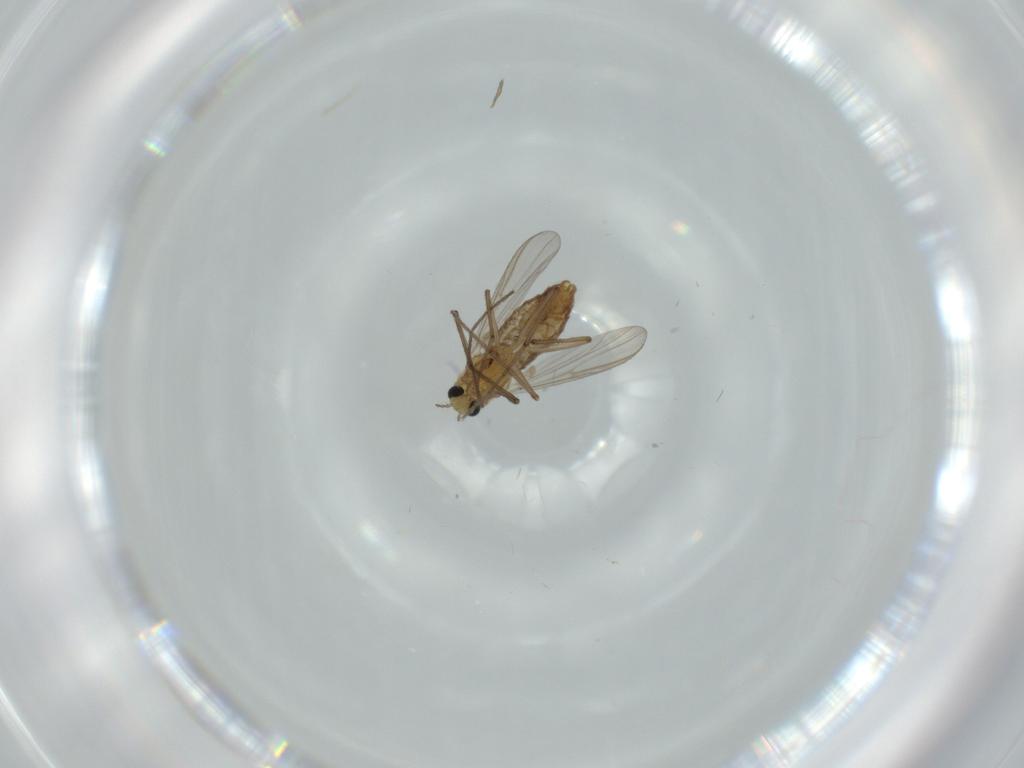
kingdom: Animalia
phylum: Arthropoda
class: Insecta
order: Diptera
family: Chironomidae
